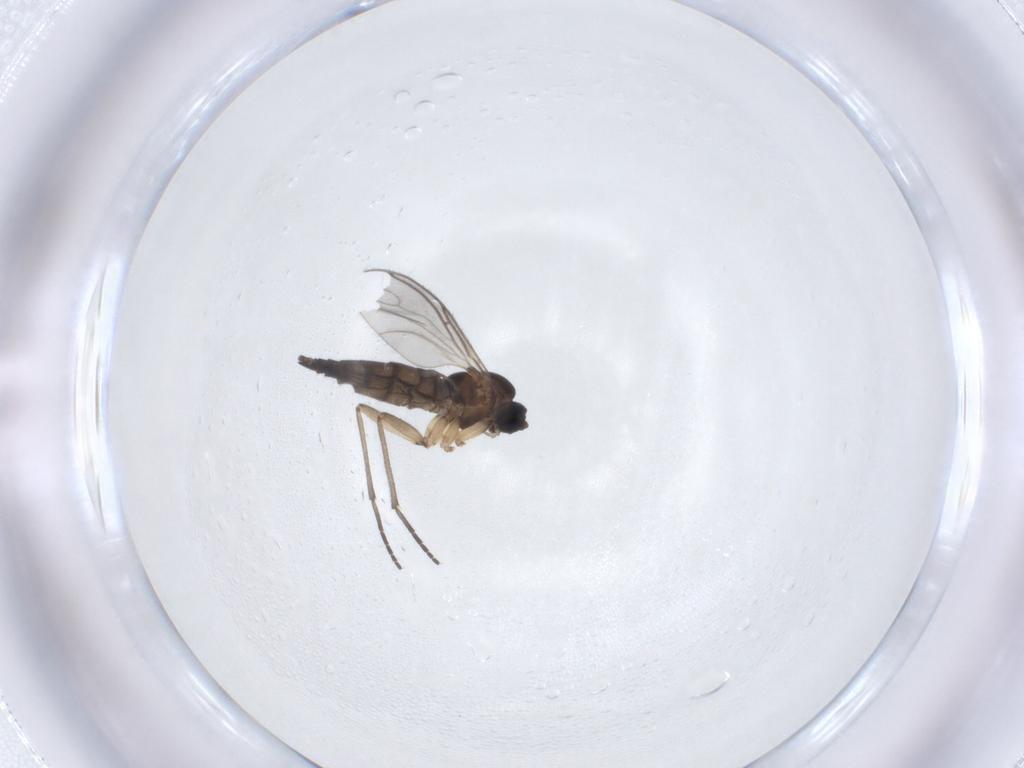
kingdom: Animalia
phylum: Arthropoda
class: Insecta
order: Diptera
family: Sciaridae
